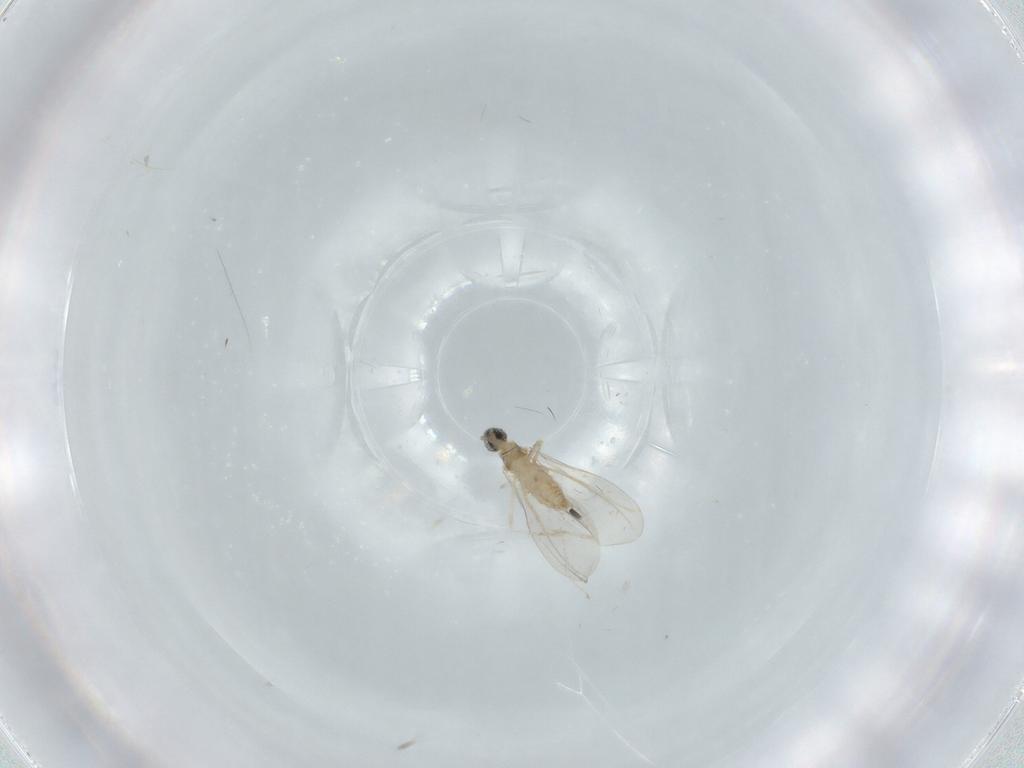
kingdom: Animalia
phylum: Arthropoda
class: Insecta
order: Diptera
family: Cecidomyiidae
